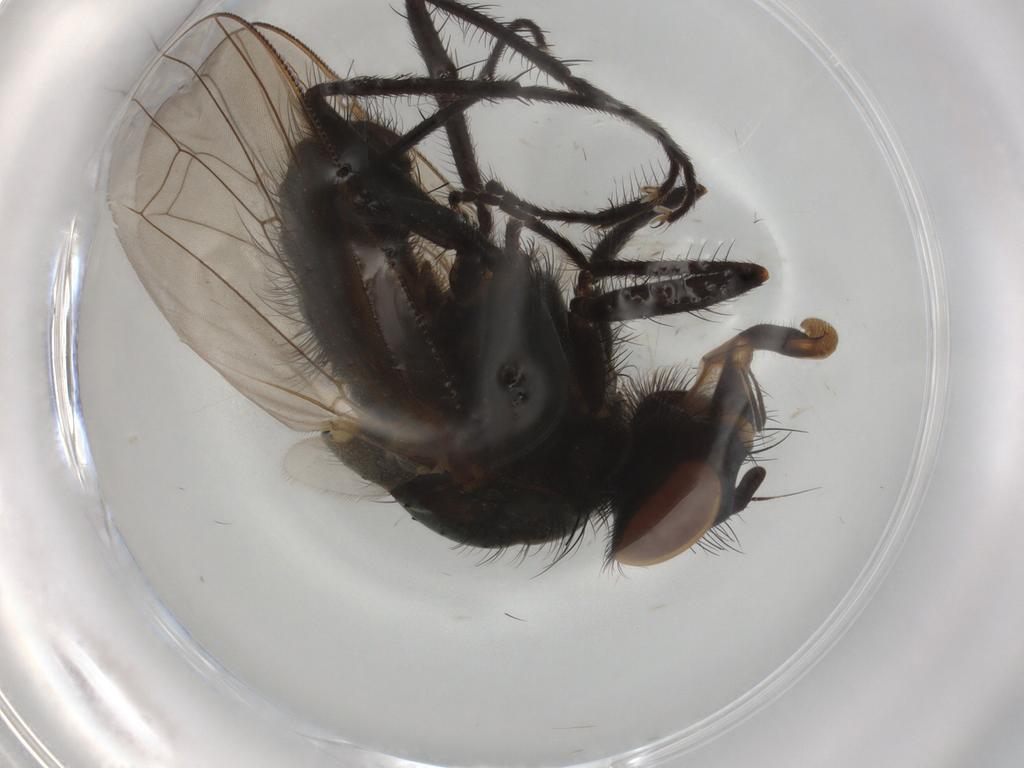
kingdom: Animalia
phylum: Arthropoda
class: Insecta
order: Diptera
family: Anthomyiidae
